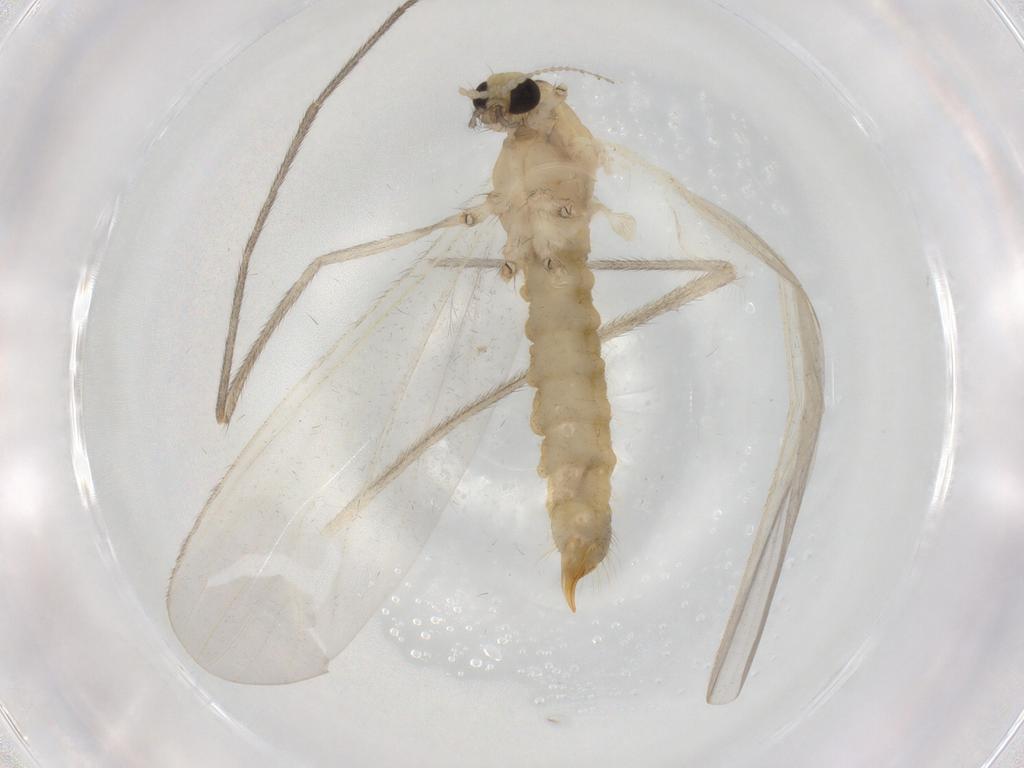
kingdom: Animalia
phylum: Arthropoda
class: Insecta
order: Diptera
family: Limoniidae
